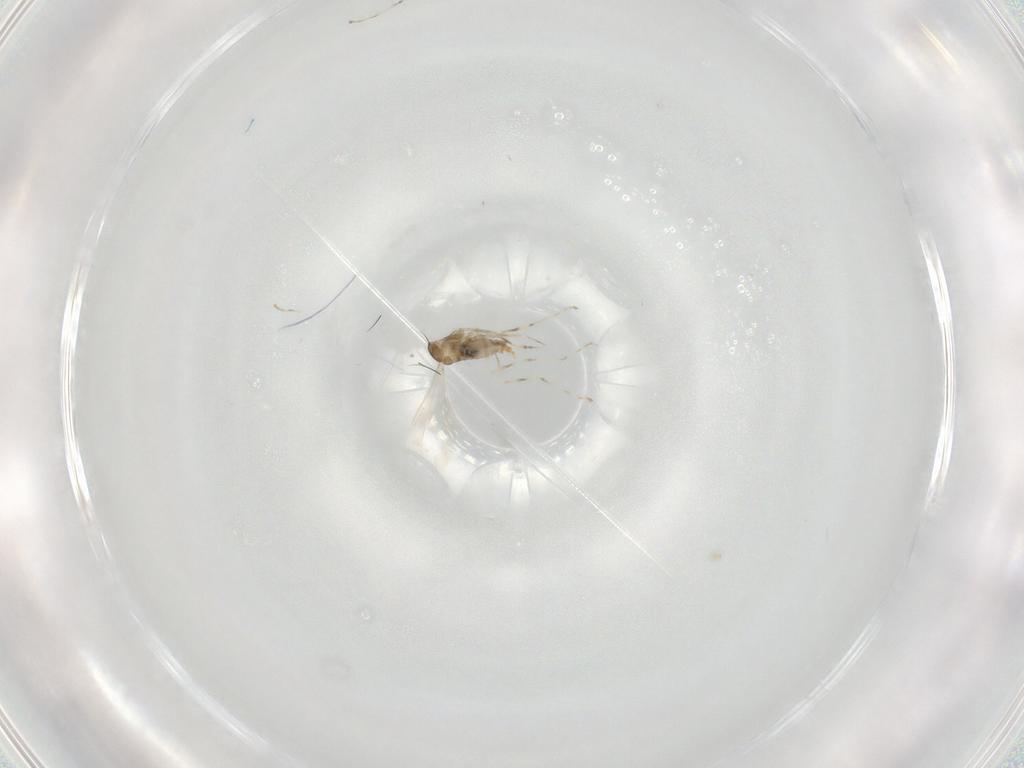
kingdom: Animalia
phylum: Arthropoda
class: Insecta
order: Diptera
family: Cecidomyiidae
